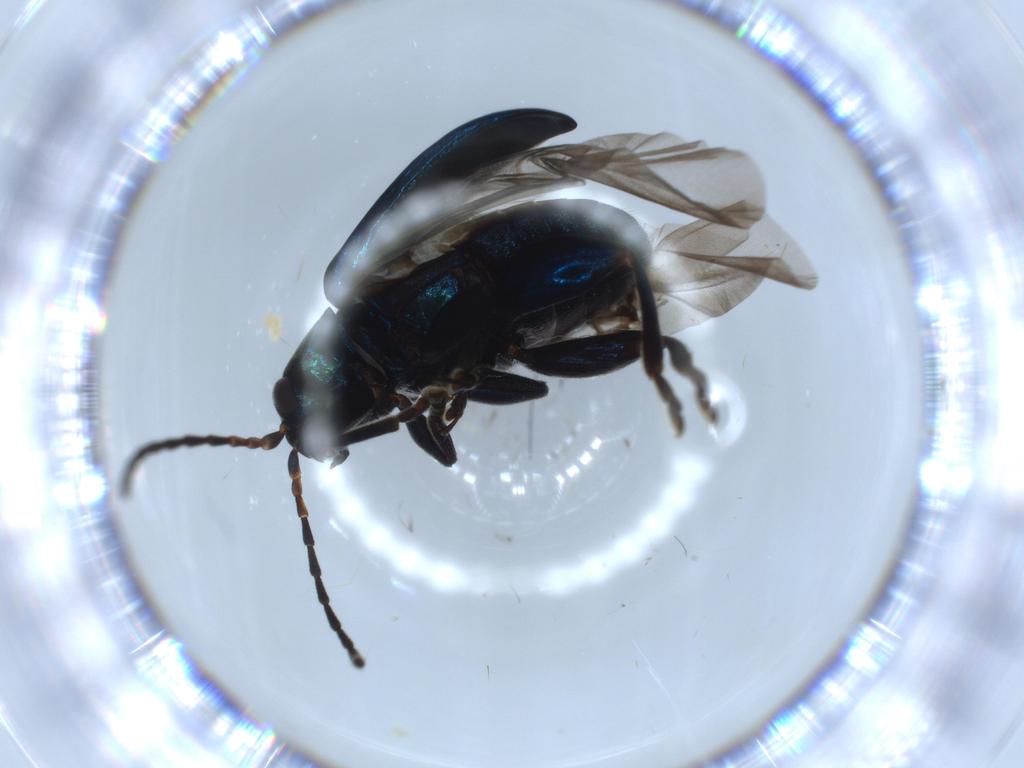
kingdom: Animalia
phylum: Arthropoda
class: Insecta
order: Coleoptera
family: Chrysomelidae
